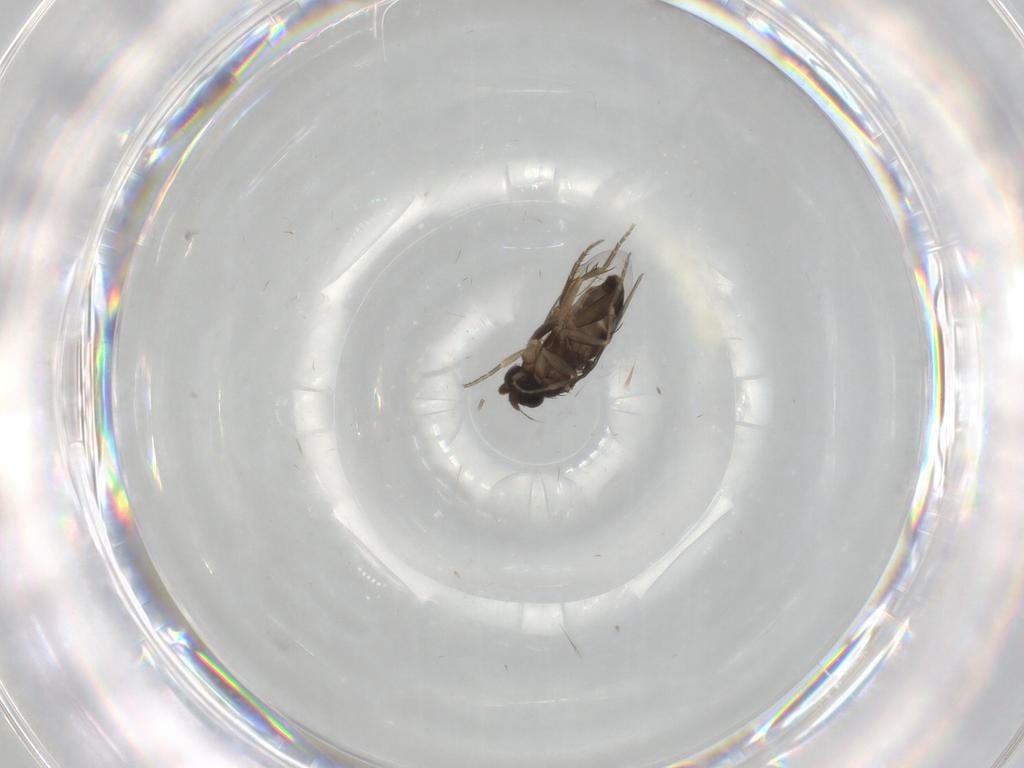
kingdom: Animalia
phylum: Arthropoda
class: Insecta
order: Diptera
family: Phoridae
